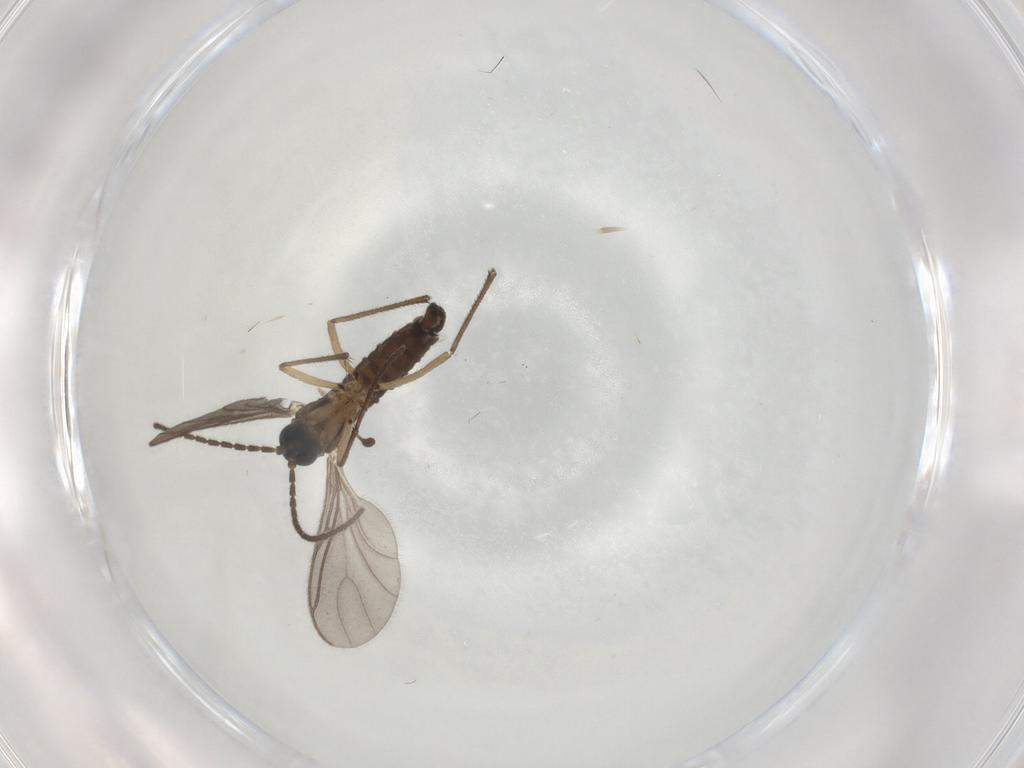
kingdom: Animalia
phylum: Arthropoda
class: Insecta
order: Diptera
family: Sciaridae
